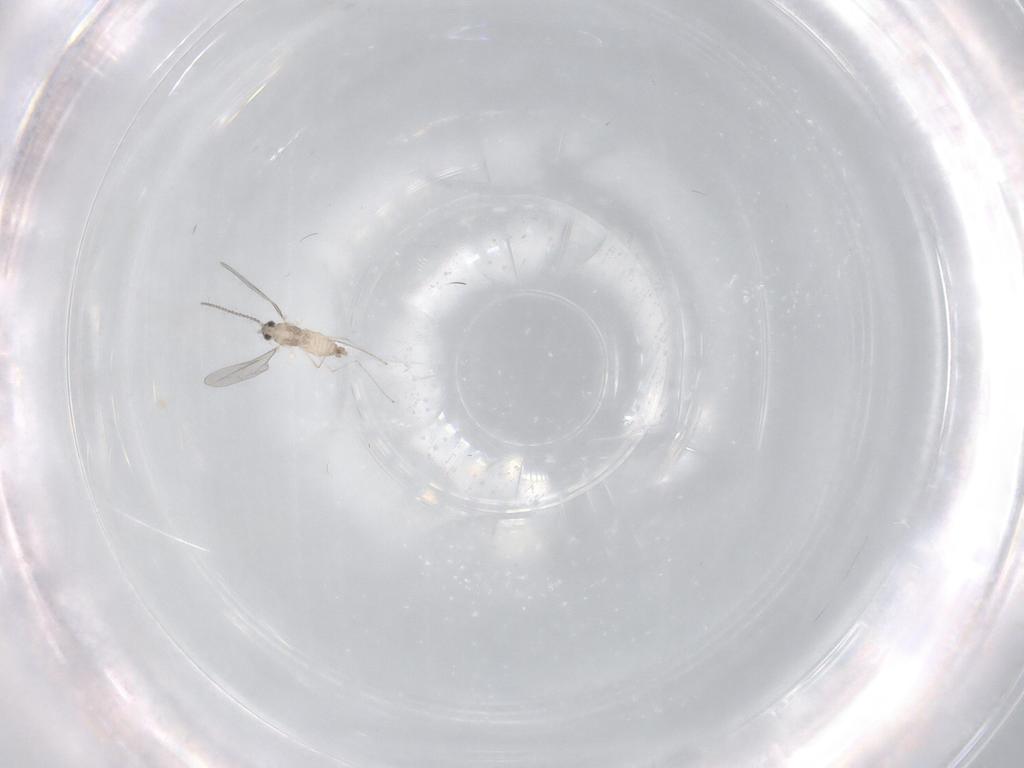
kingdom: Animalia
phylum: Arthropoda
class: Insecta
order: Diptera
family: Cecidomyiidae
